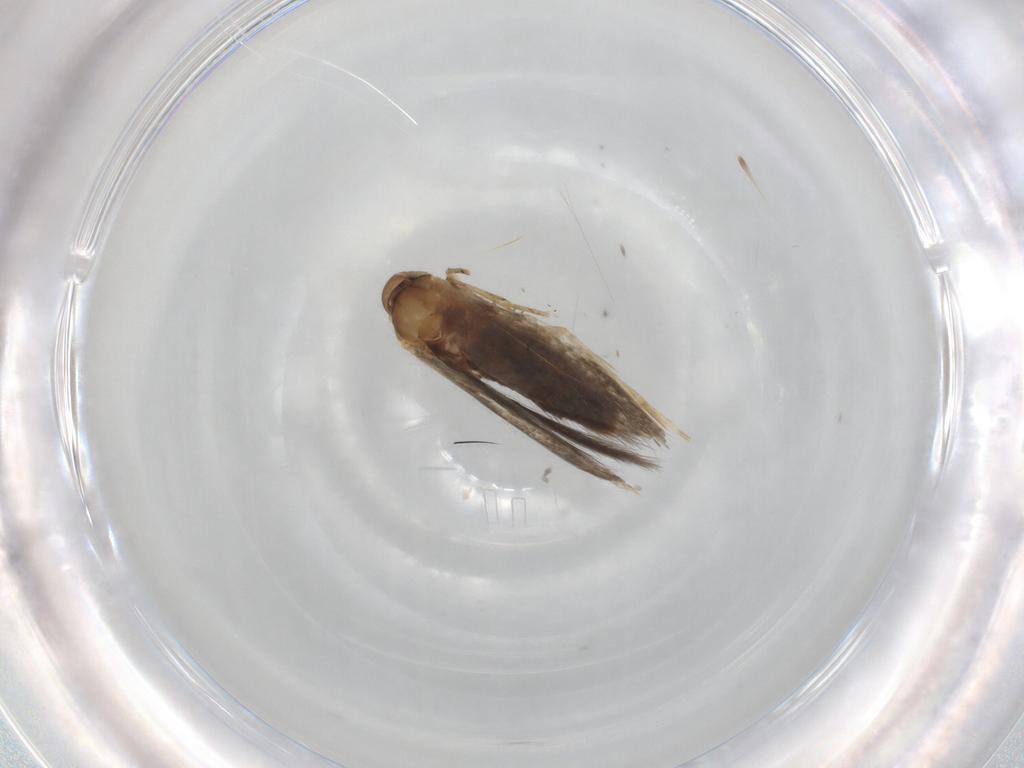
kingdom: Animalia
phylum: Arthropoda
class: Insecta
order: Lepidoptera
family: Elachistidae
